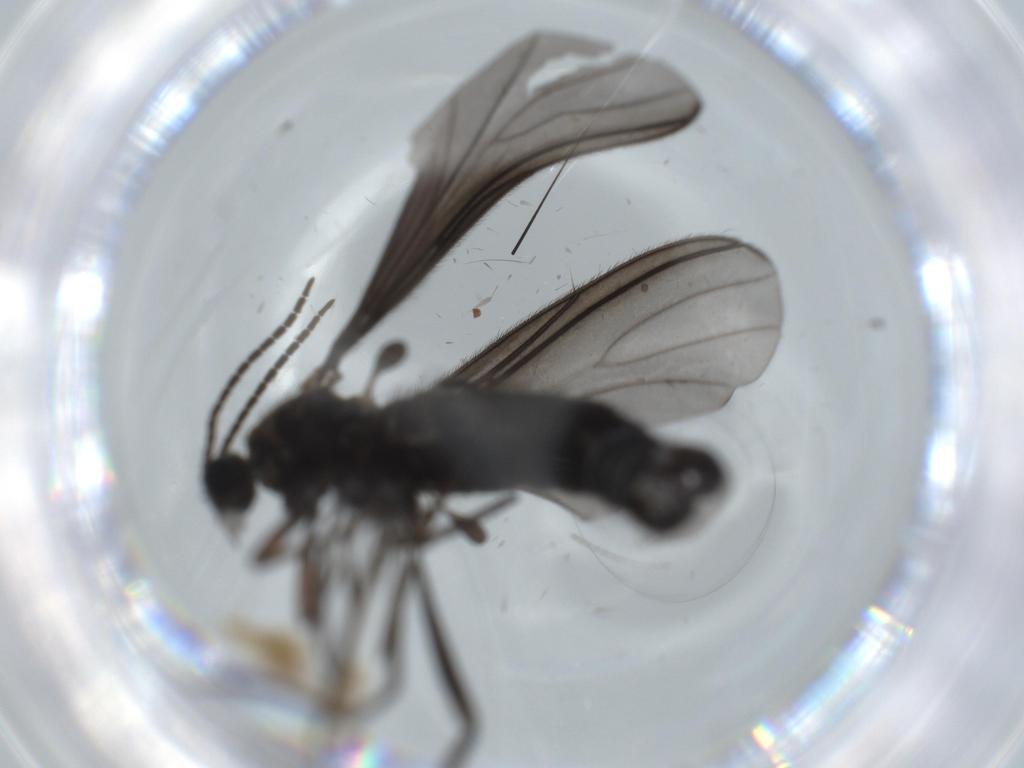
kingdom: Animalia
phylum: Arthropoda
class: Insecta
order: Diptera
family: Sciaridae
